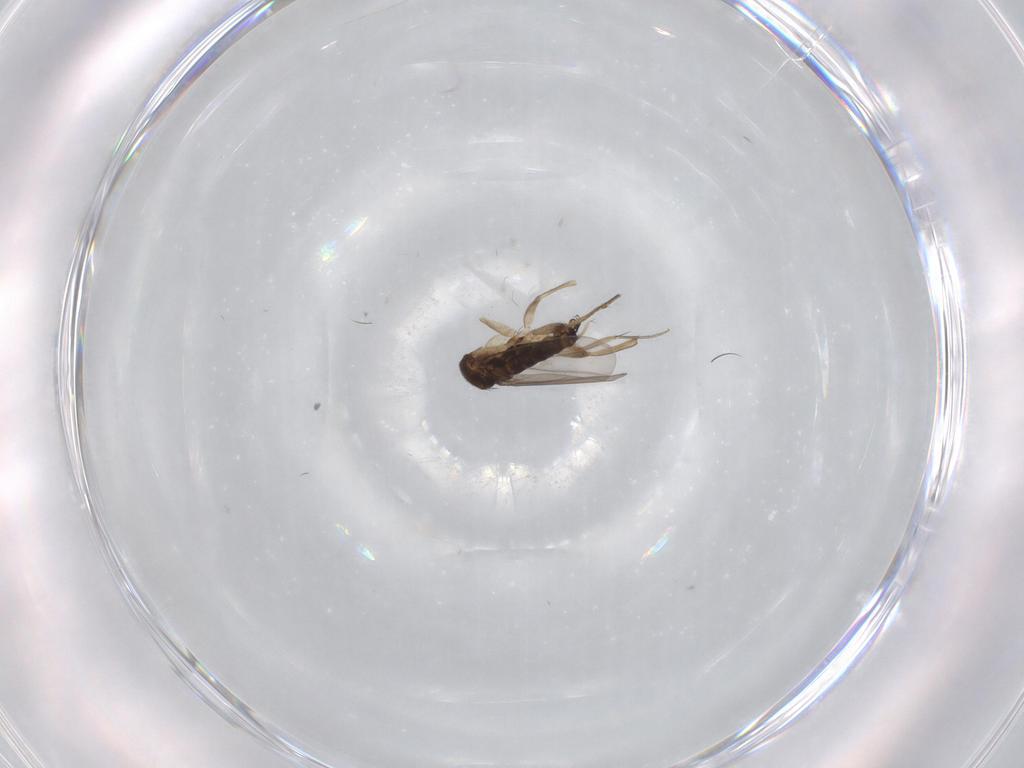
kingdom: Animalia
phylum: Arthropoda
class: Insecta
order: Diptera
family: Phoridae
